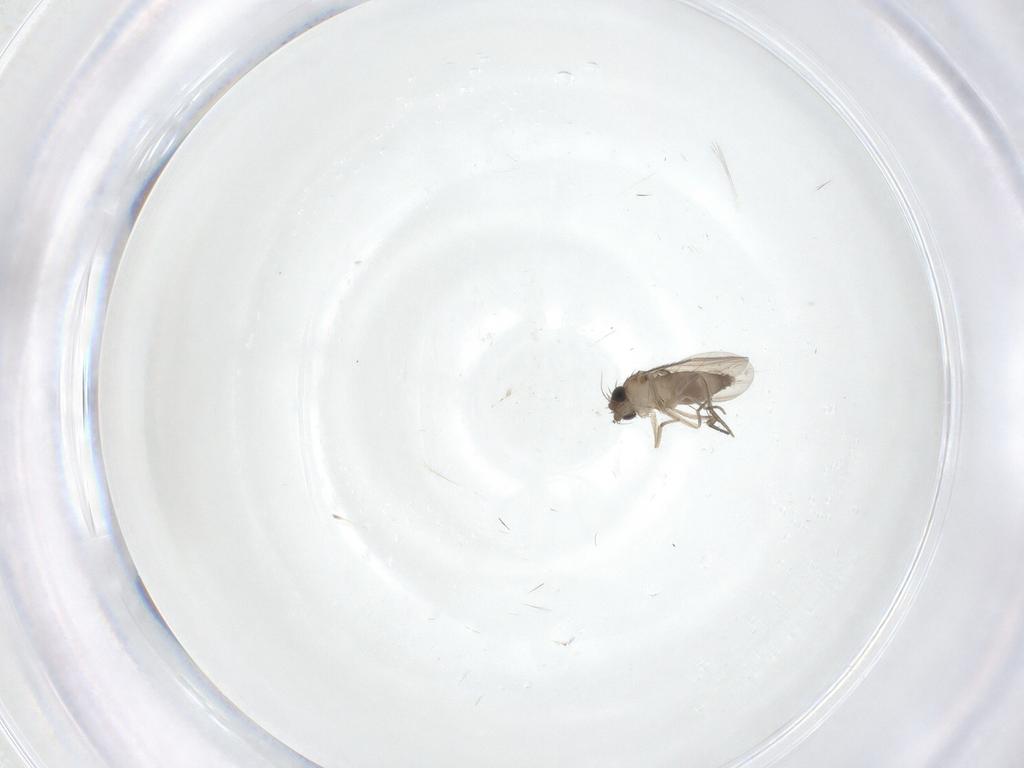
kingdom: Animalia
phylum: Arthropoda
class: Insecta
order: Diptera
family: Phoridae
